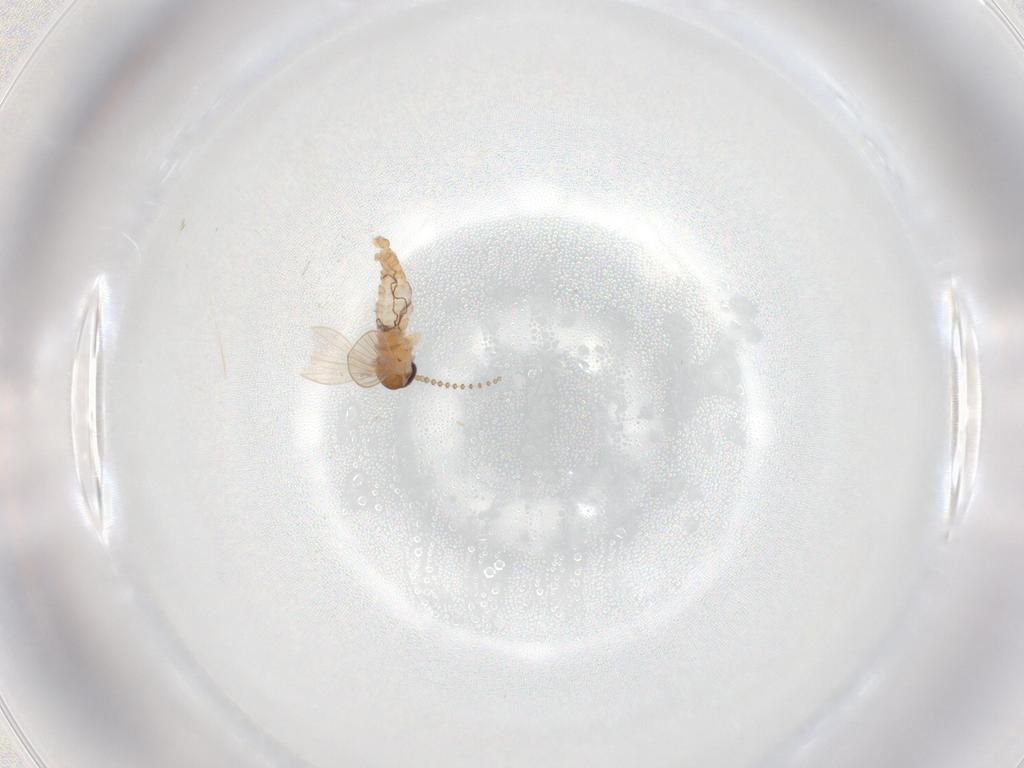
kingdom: Animalia
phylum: Arthropoda
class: Insecta
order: Diptera
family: Psychodidae
